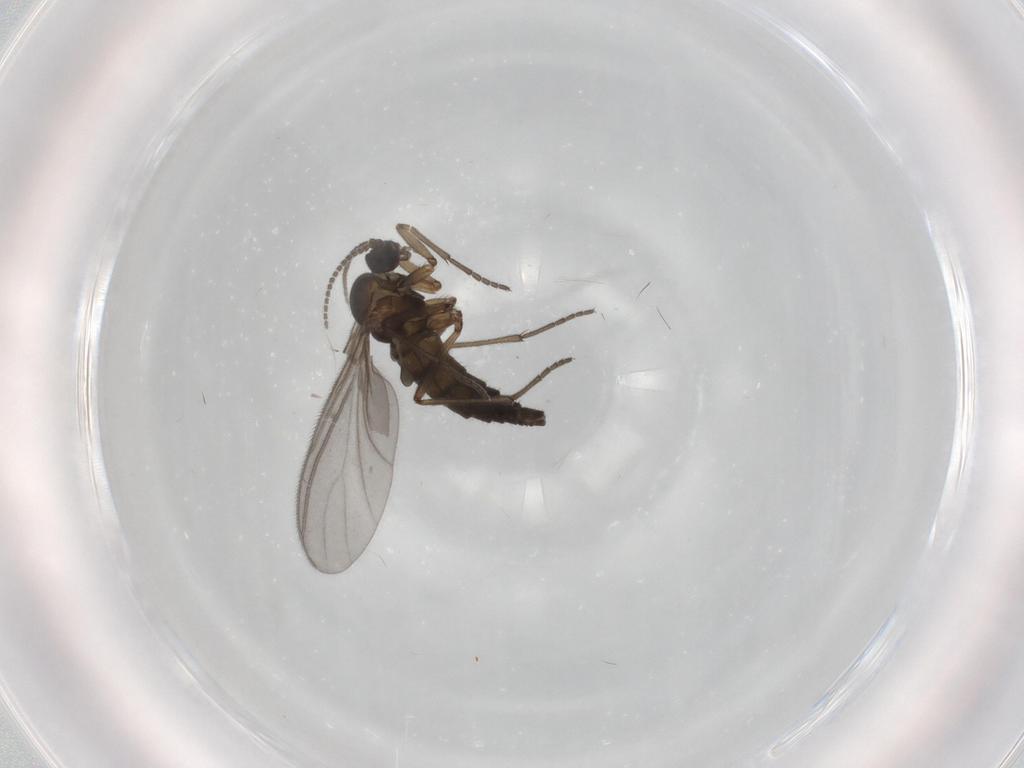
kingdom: Animalia
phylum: Arthropoda
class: Insecta
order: Diptera
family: Sciaridae
